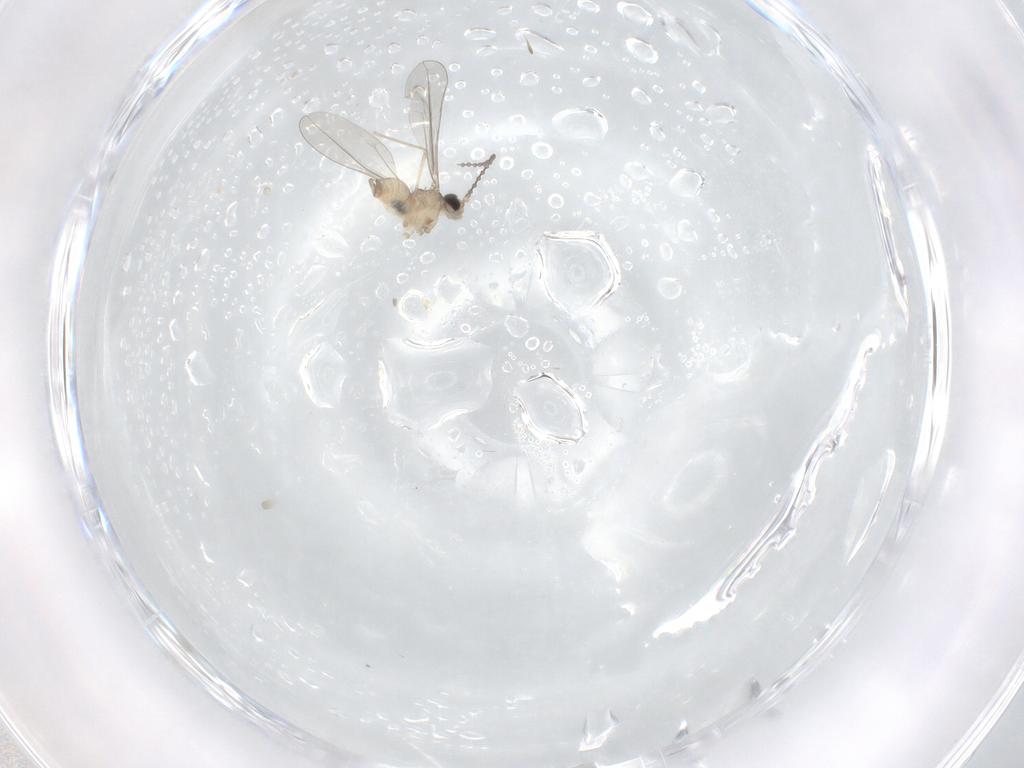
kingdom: Animalia
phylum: Arthropoda
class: Insecta
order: Diptera
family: Cecidomyiidae
